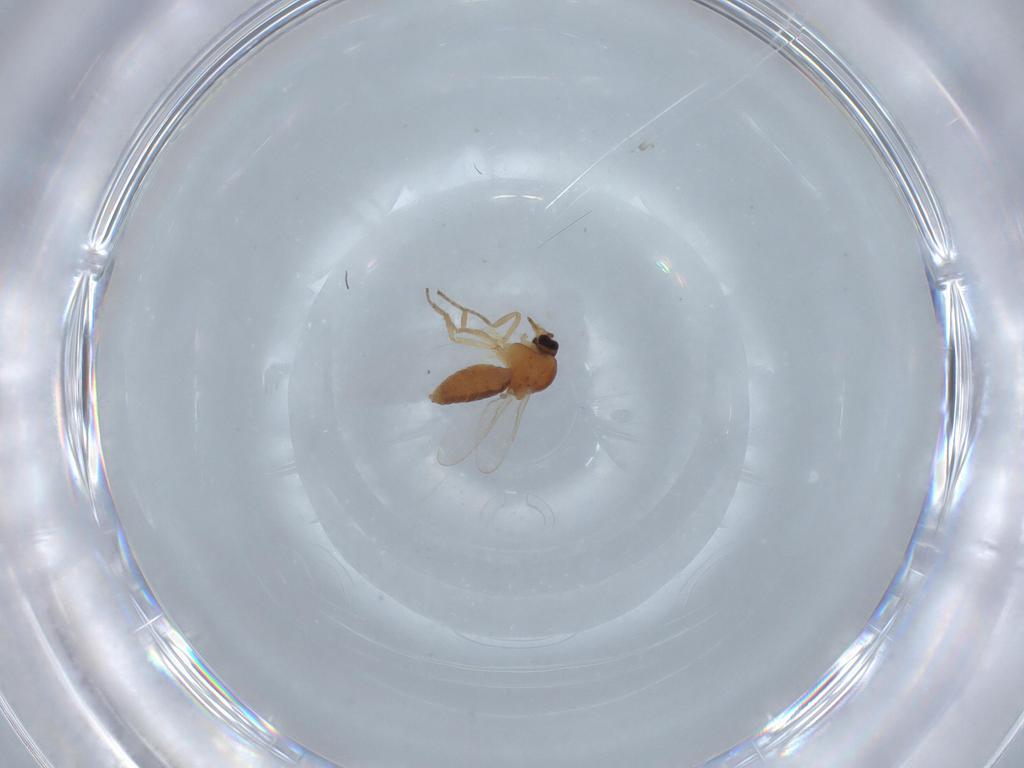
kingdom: Animalia
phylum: Arthropoda
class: Insecta
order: Diptera
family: Ceratopogonidae
